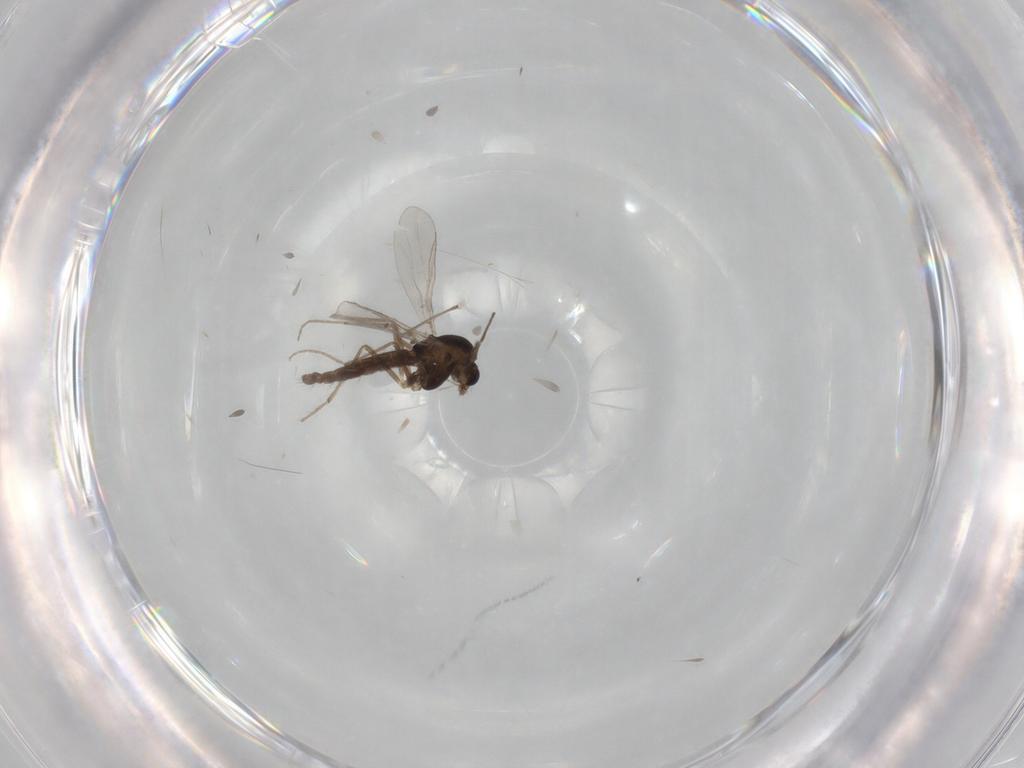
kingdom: Animalia
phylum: Arthropoda
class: Insecta
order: Diptera
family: Chironomidae
